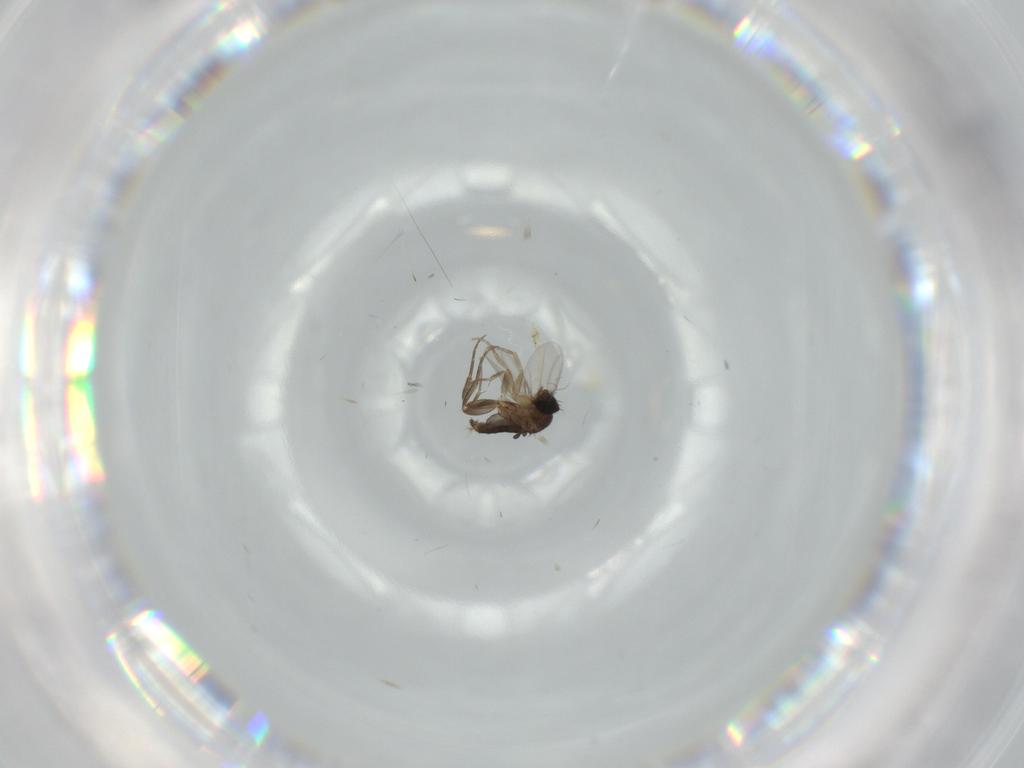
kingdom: Animalia
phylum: Arthropoda
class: Insecta
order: Diptera
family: Phoridae
